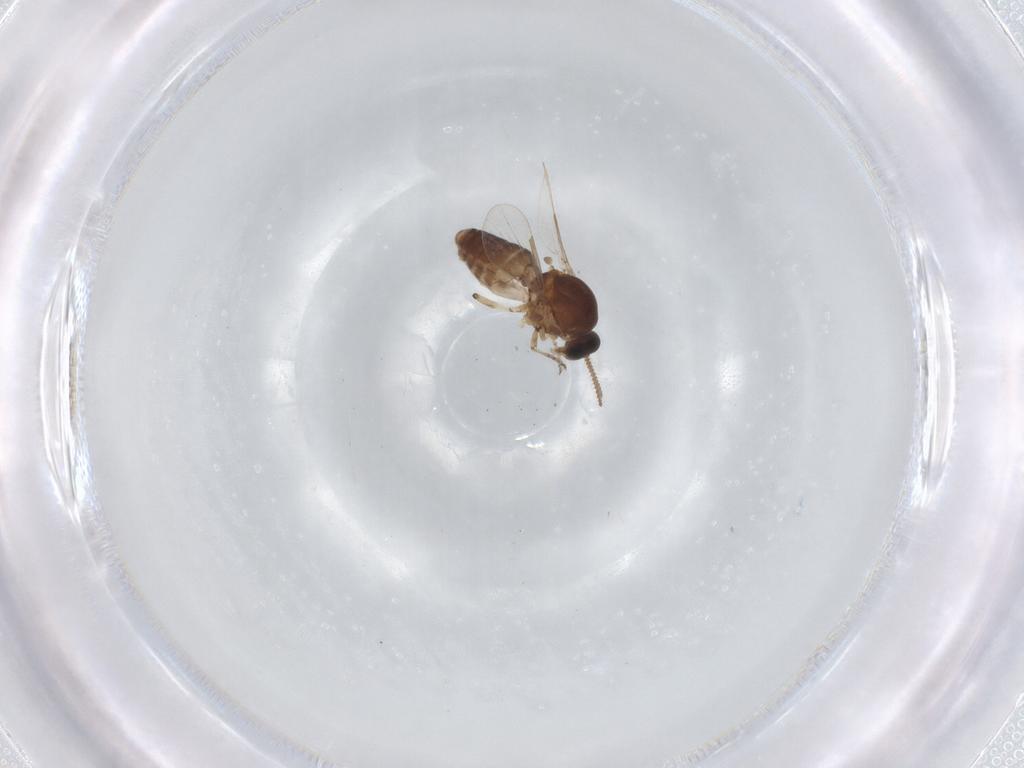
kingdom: Animalia
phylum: Arthropoda
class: Insecta
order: Diptera
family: Ceratopogonidae
